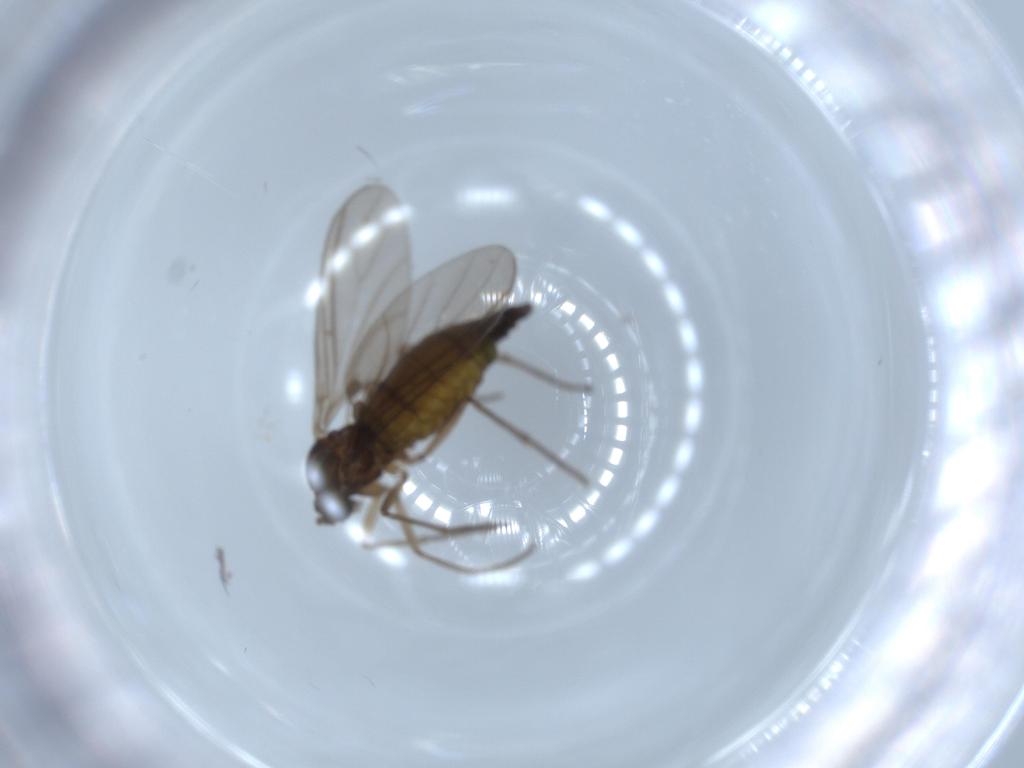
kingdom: Animalia
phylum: Arthropoda
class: Insecta
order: Diptera
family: Sciaridae
